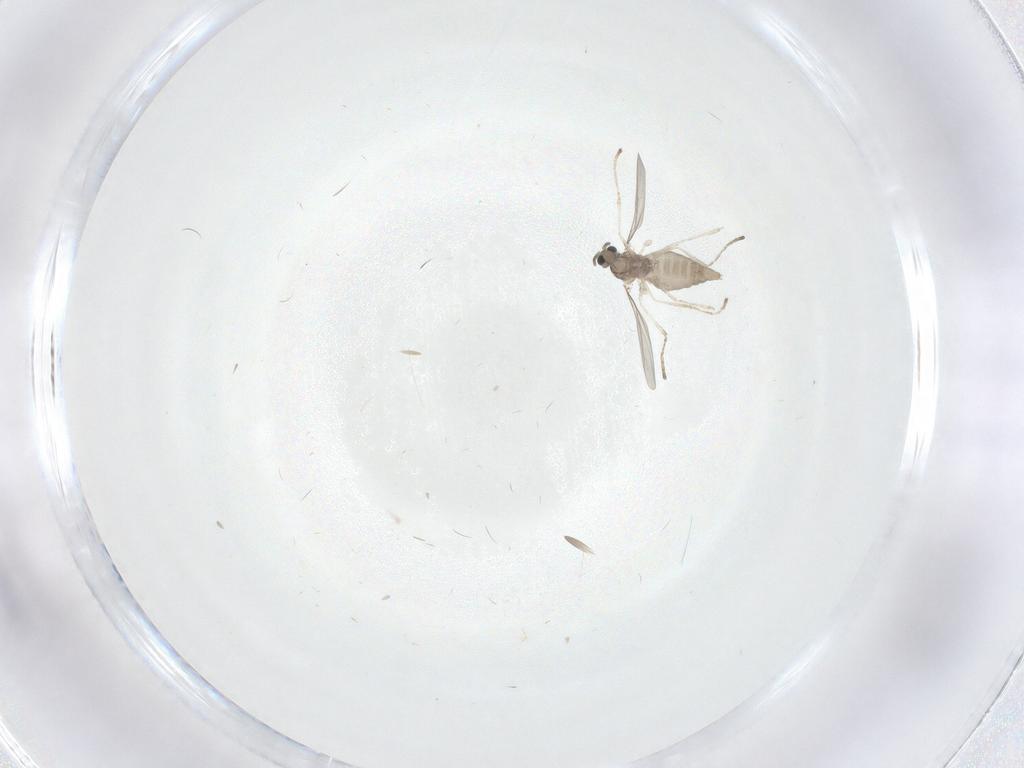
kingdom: Animalia
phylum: Arthropoda
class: Insecta
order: Diptera
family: Cecidomyiidae
